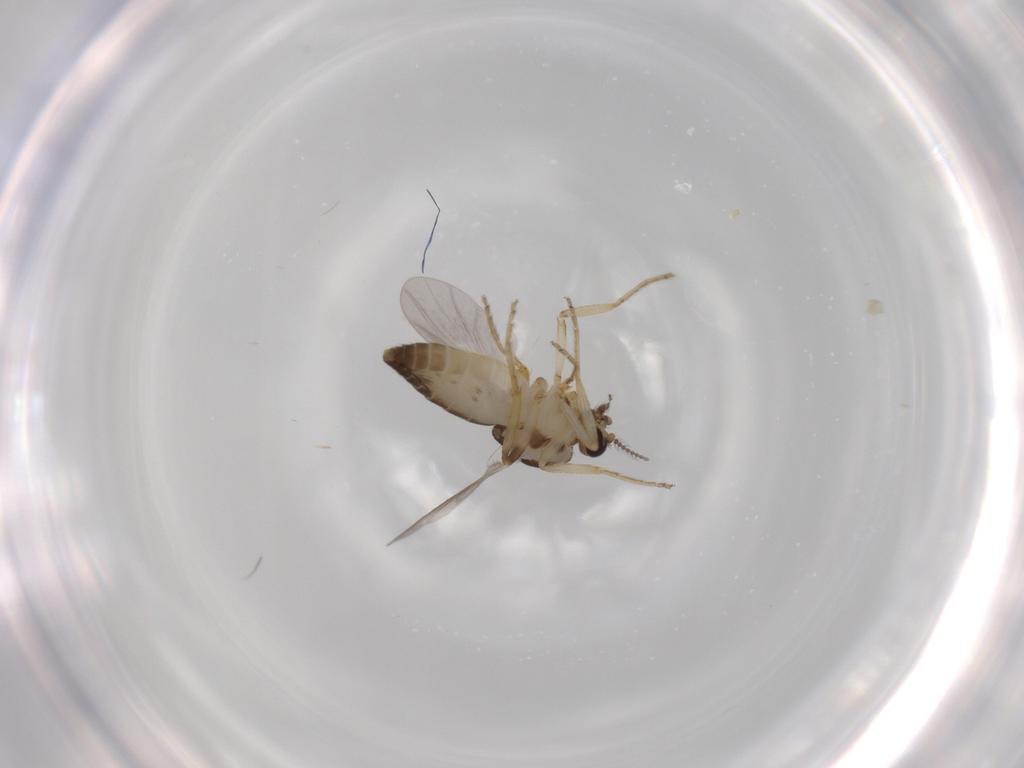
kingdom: Animalia
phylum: Arthropoda
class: Insecta
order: Diptera
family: Ceratopogonidae
